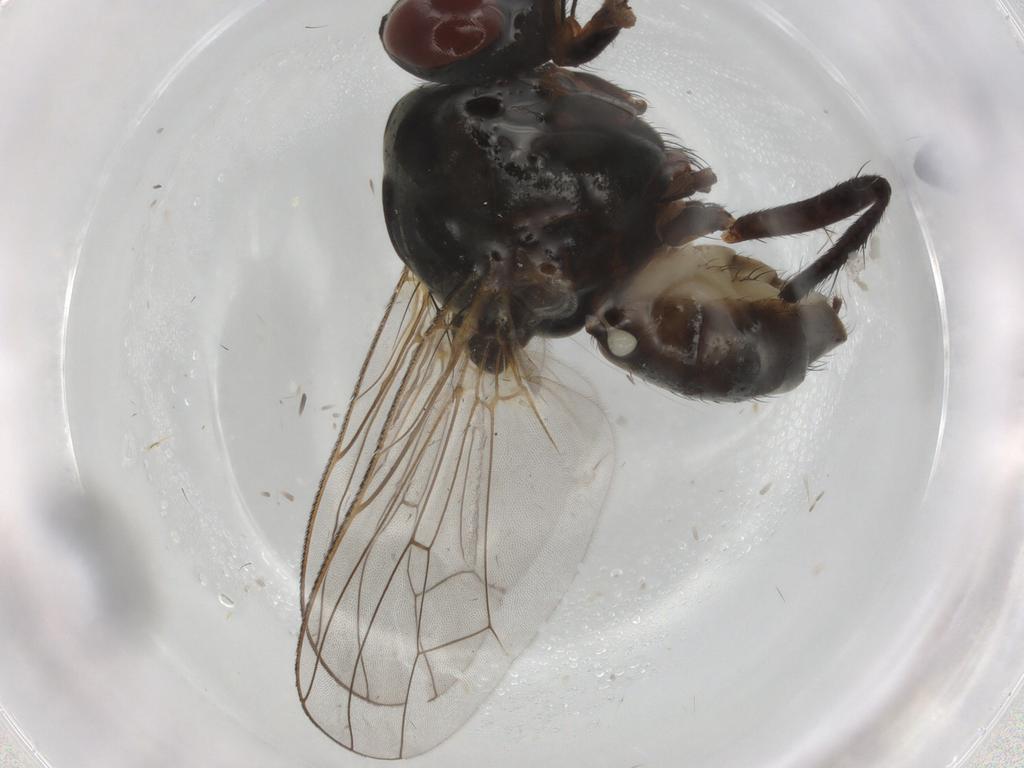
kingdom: Animalia
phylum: Arthropoda
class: Insecta
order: Diptera
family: Anthomyiidae
